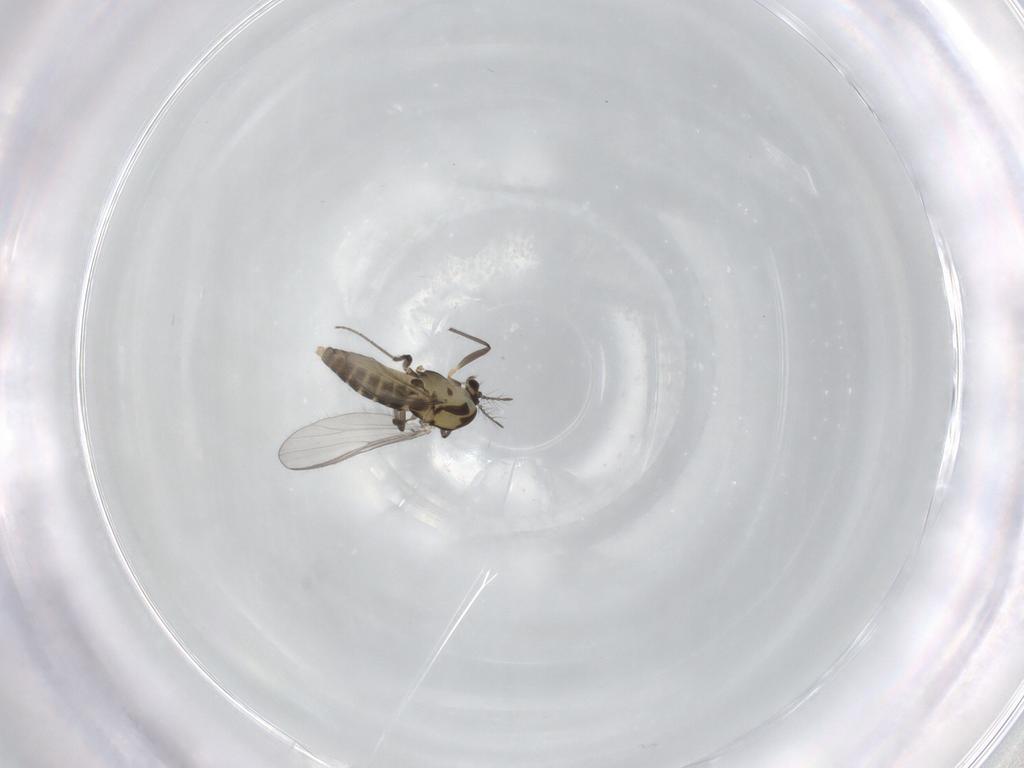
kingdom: Animalia
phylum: Arthropoda
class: Insecta
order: Diptera
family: Chironomidae
